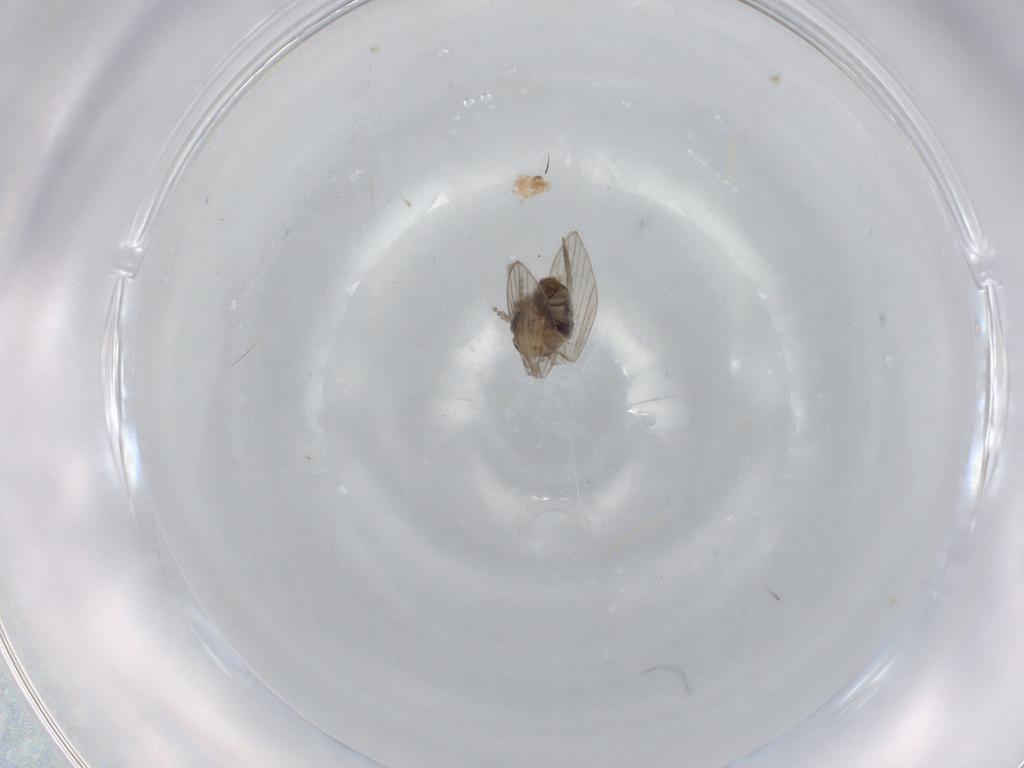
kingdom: Animalia
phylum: Arthropoda
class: Insecta
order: Diptera
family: Psychodidae
